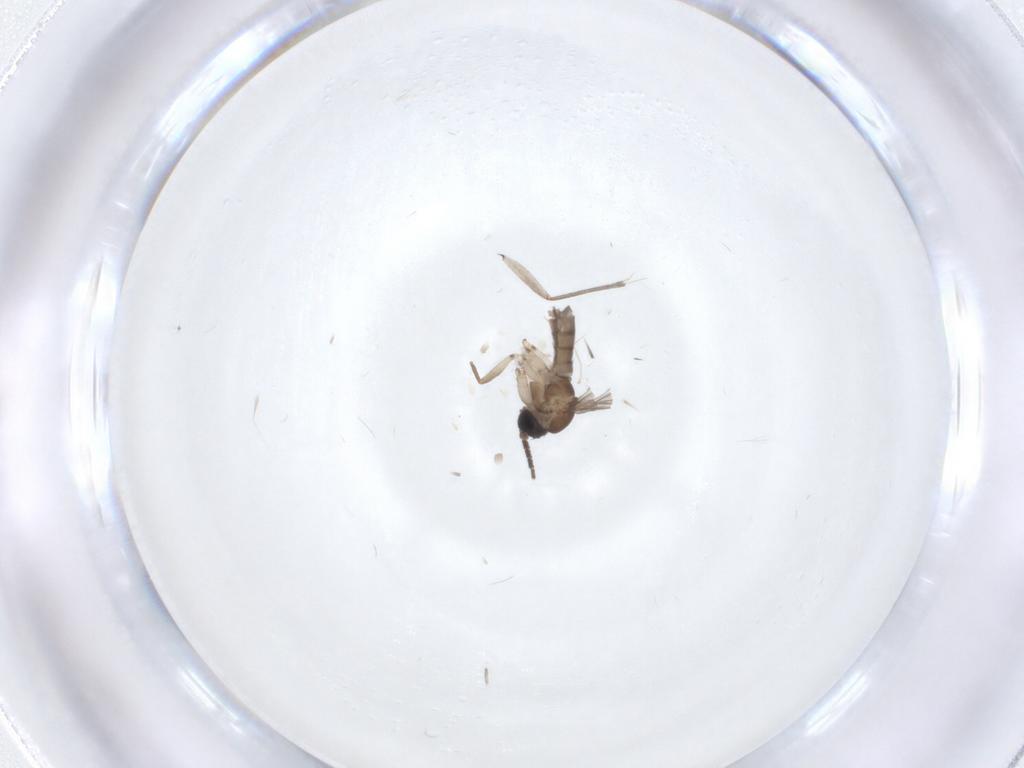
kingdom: Animalia
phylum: Arthropoda
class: Insecta
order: Diptera
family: Sciaridae
